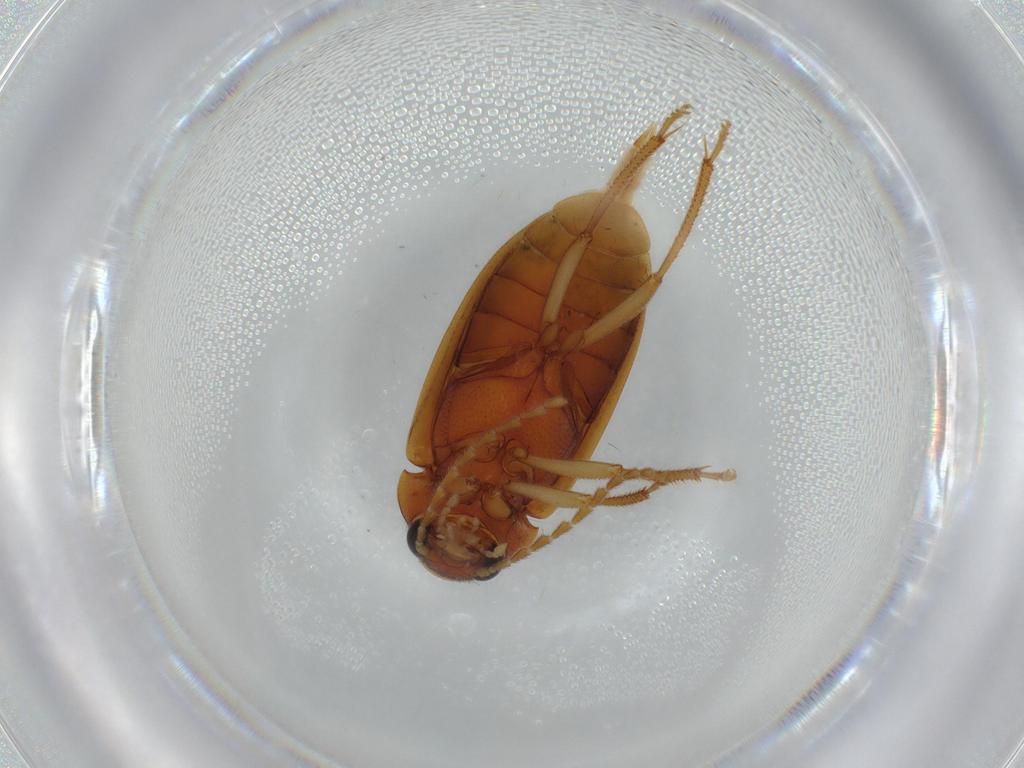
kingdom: Animalia
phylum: Arthropoda
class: Insecta
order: Coleoptera
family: Ptilodactylidae
